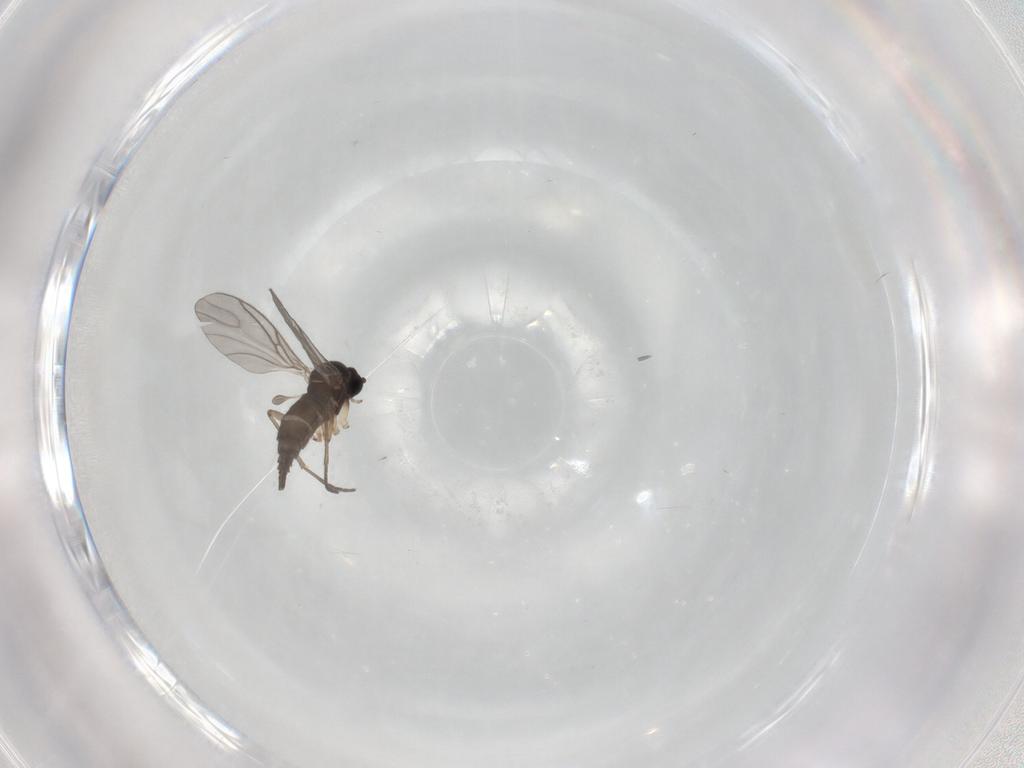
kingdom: Animalia
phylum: Arthropoda
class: Insecta
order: Diptera
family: Sciaridae
